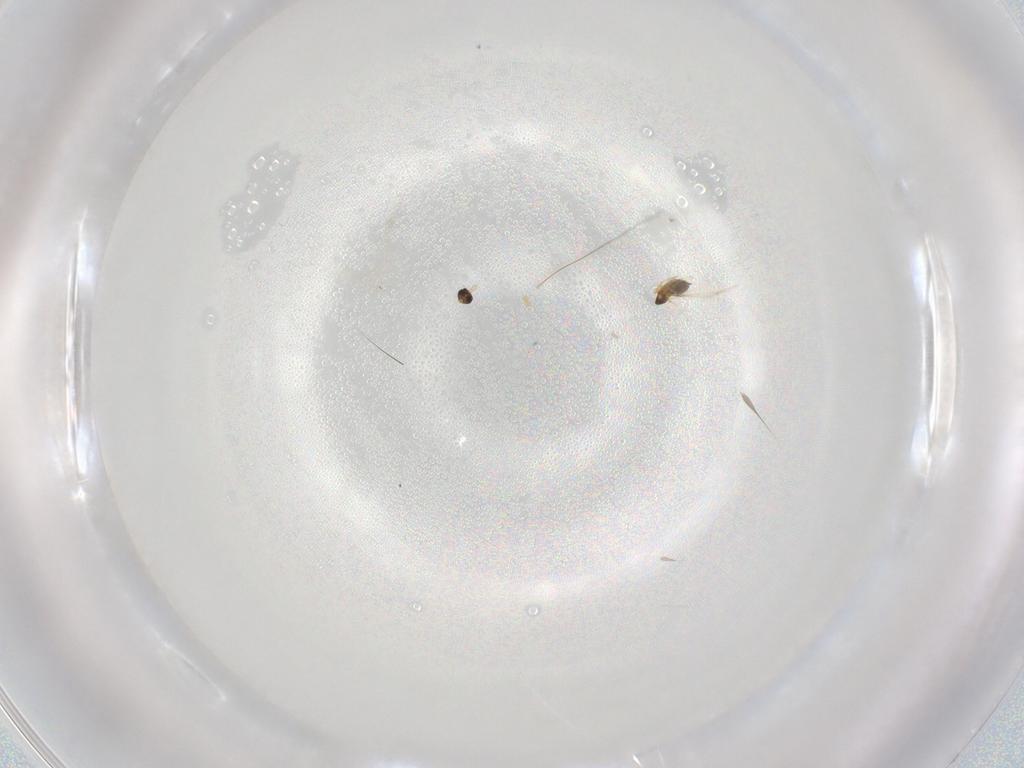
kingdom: Animalia
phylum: Arthropoda
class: Insecta
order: Hymenoptera
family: Mymaridae
